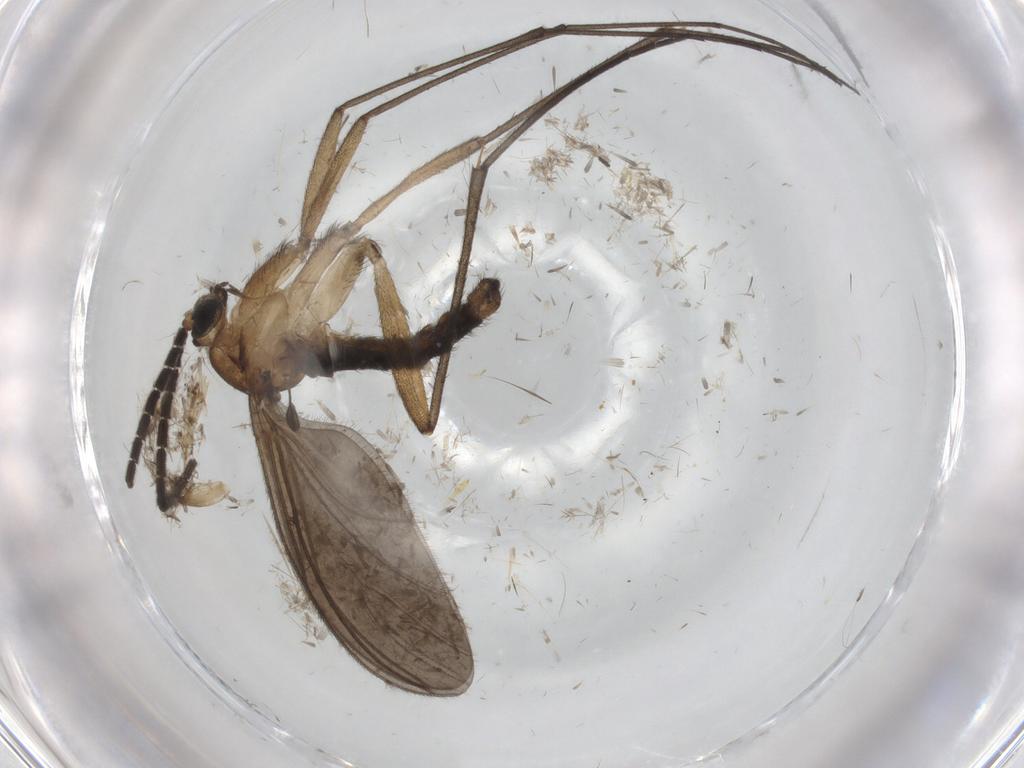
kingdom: Animalia
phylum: Arthropoda
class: Insecta
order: Diptera
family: Mycetophilidae
